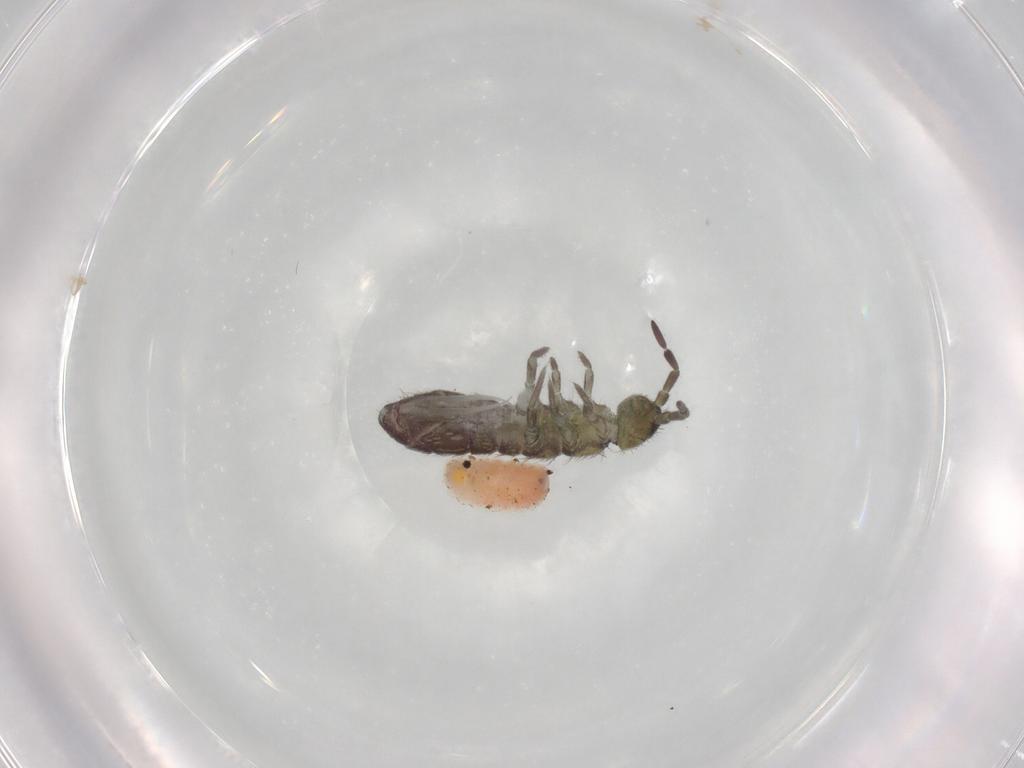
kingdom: Animalia
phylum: Arthropoda
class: Collembola
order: Entomobryomorpha
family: Isotomidae
